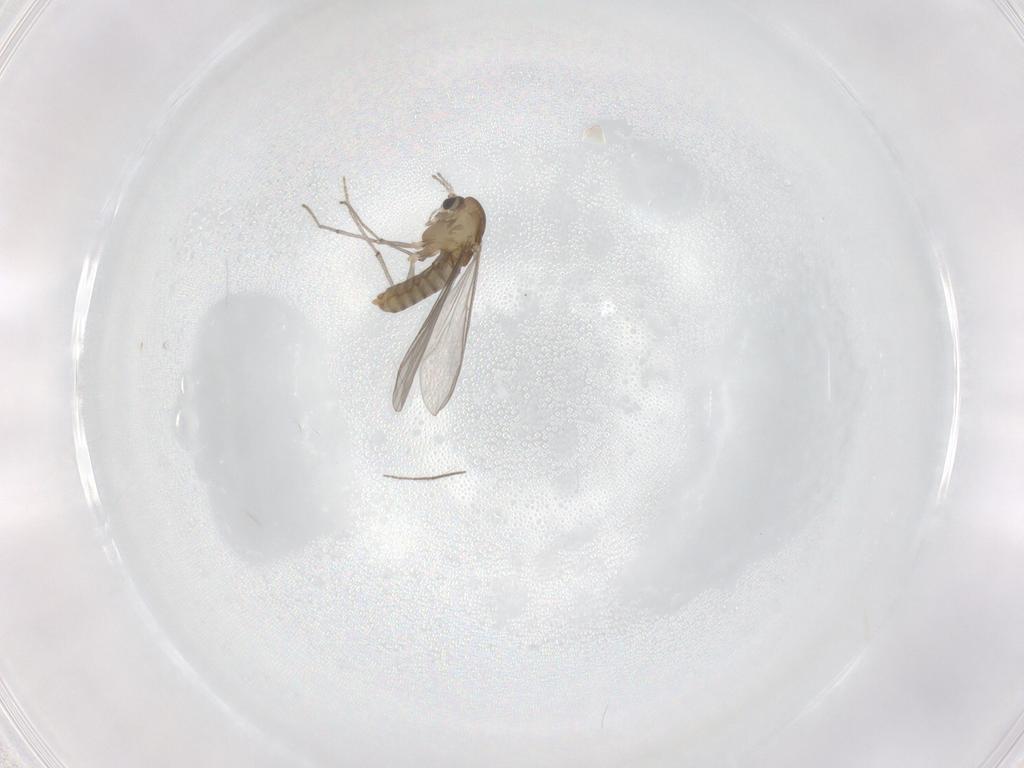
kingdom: Animalia
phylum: Arthropoda
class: Insecta
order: Diptera
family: Chironomidae
